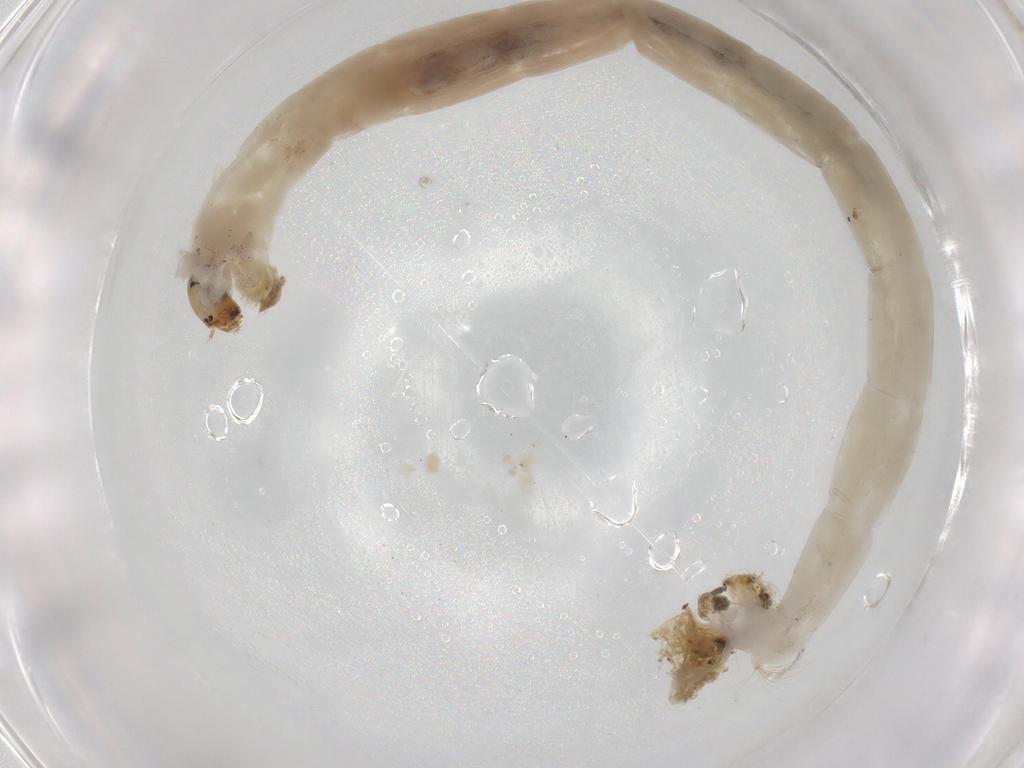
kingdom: Animalia
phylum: Arthropoda
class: Insecta
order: Diptera
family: Chironomidae
